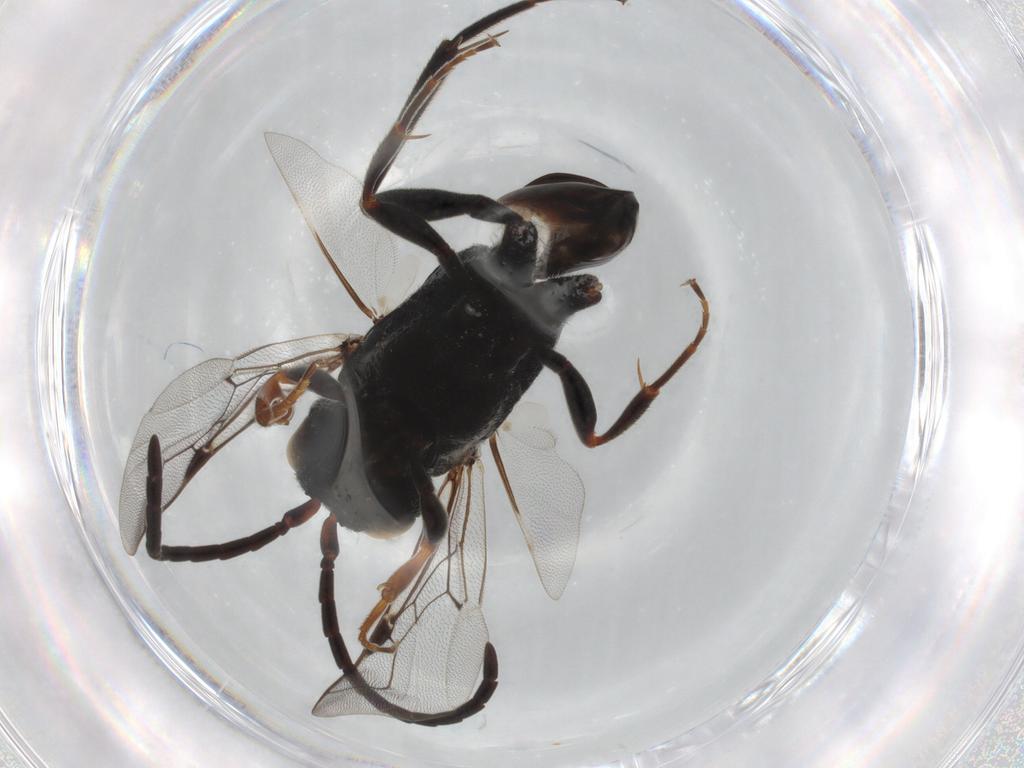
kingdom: Animalia
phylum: Arthropoda
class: Insecta
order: Hymenoptera
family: Evaniidae
